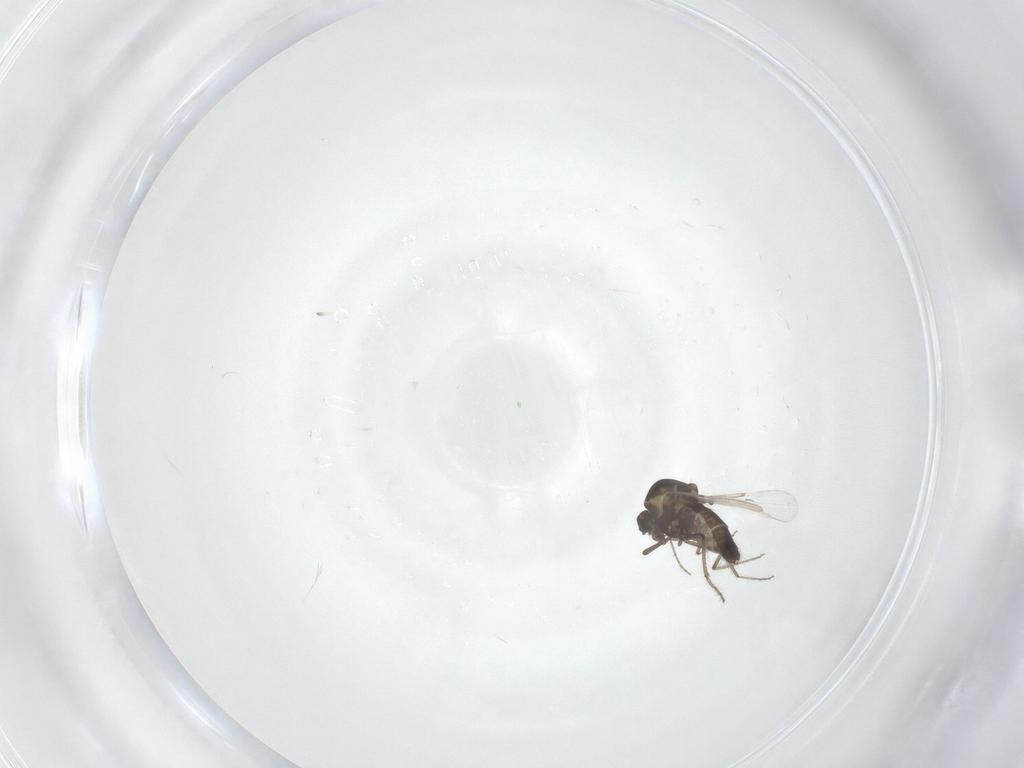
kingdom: Animalia
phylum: Arthropoda
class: Insecta
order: Diptera
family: Ceratopogonidae
